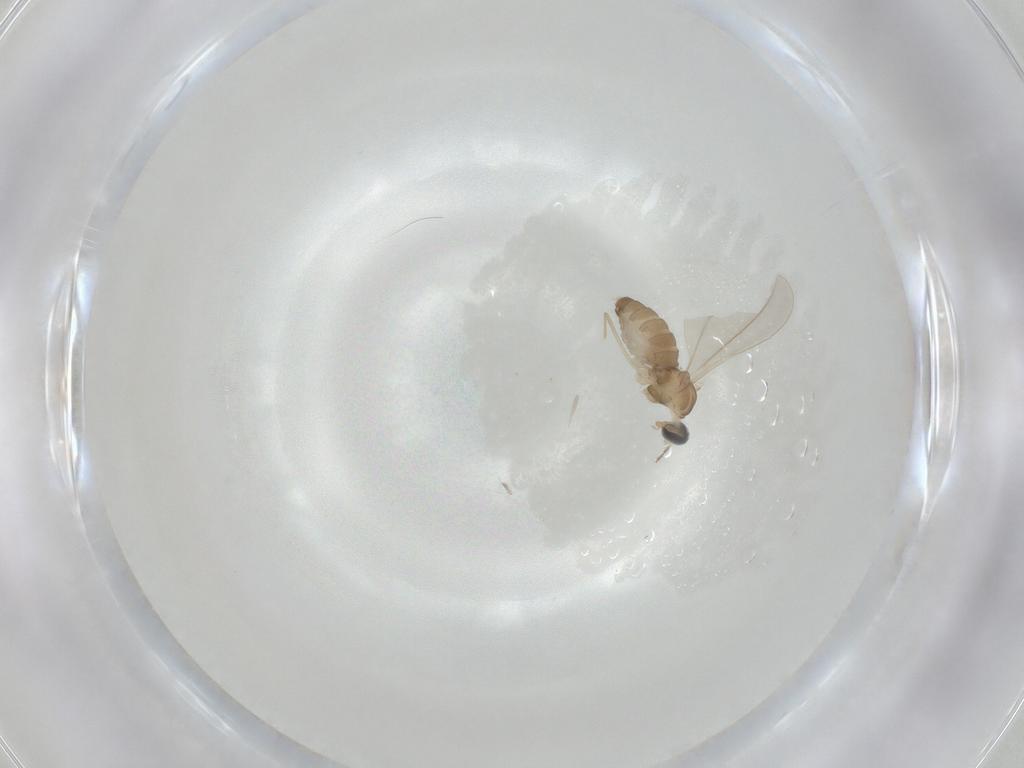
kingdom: Animalia
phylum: Arthropoda
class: Insecta
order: Diptera
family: Cecidomyiidae
